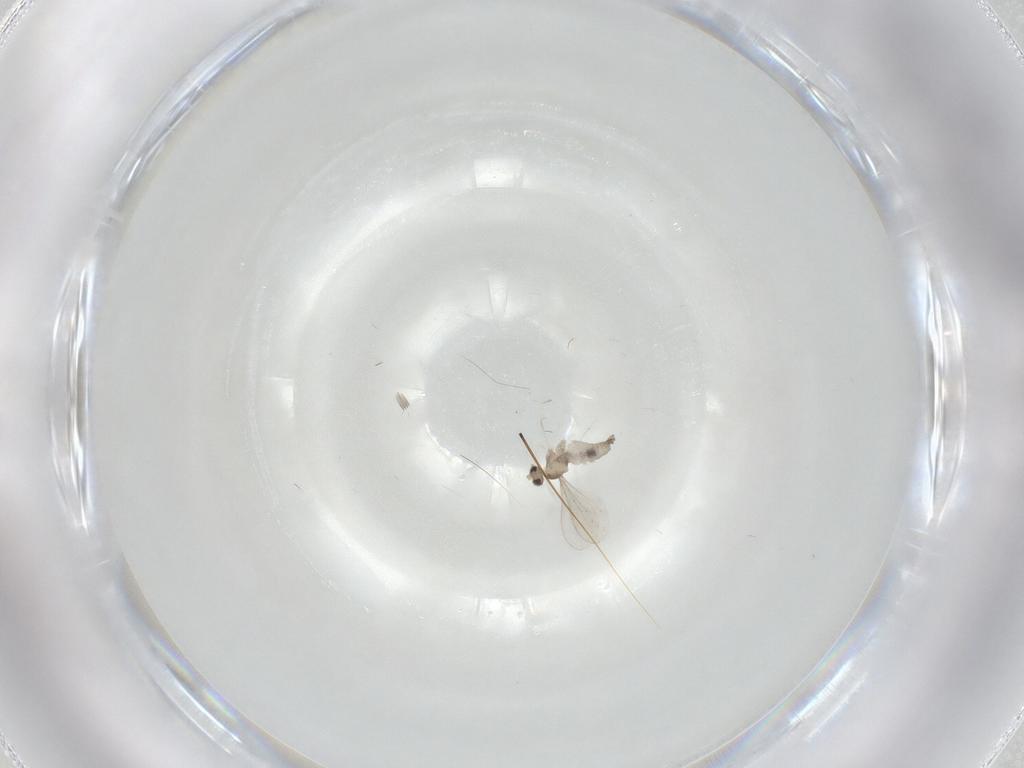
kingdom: Animalia
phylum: Arthropoda
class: Insecta
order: Diptera
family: Cecidomyiidae
